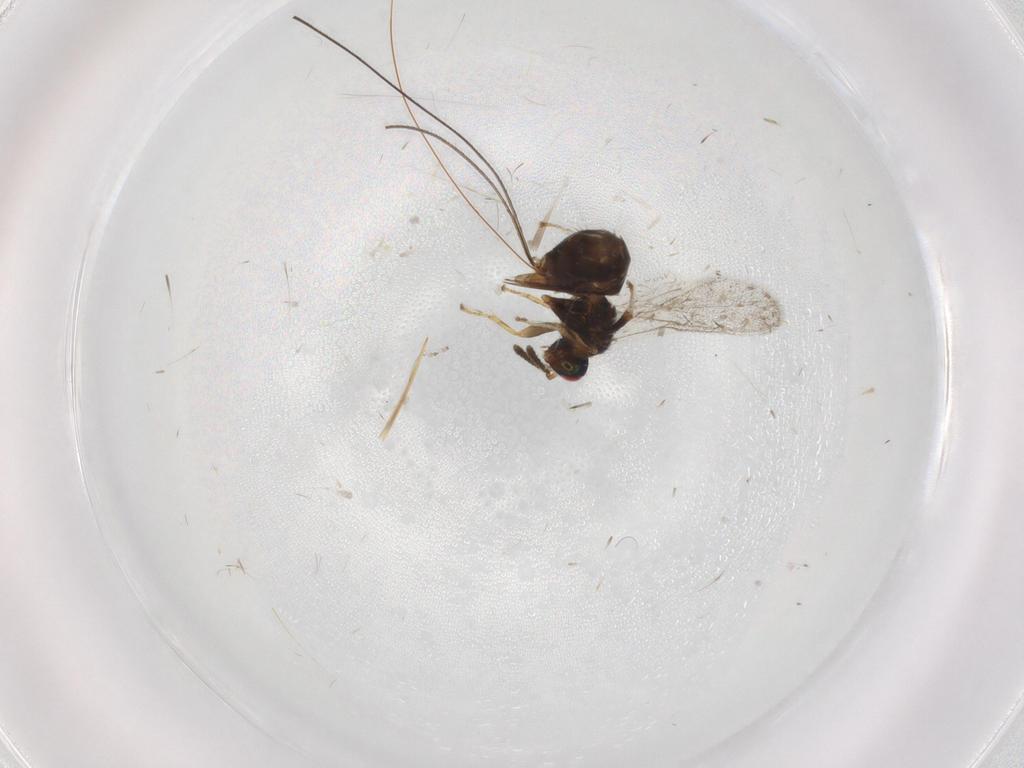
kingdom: Animalia
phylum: Arthropoda
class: Insecta
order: Hymenoptera
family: Torymidae
